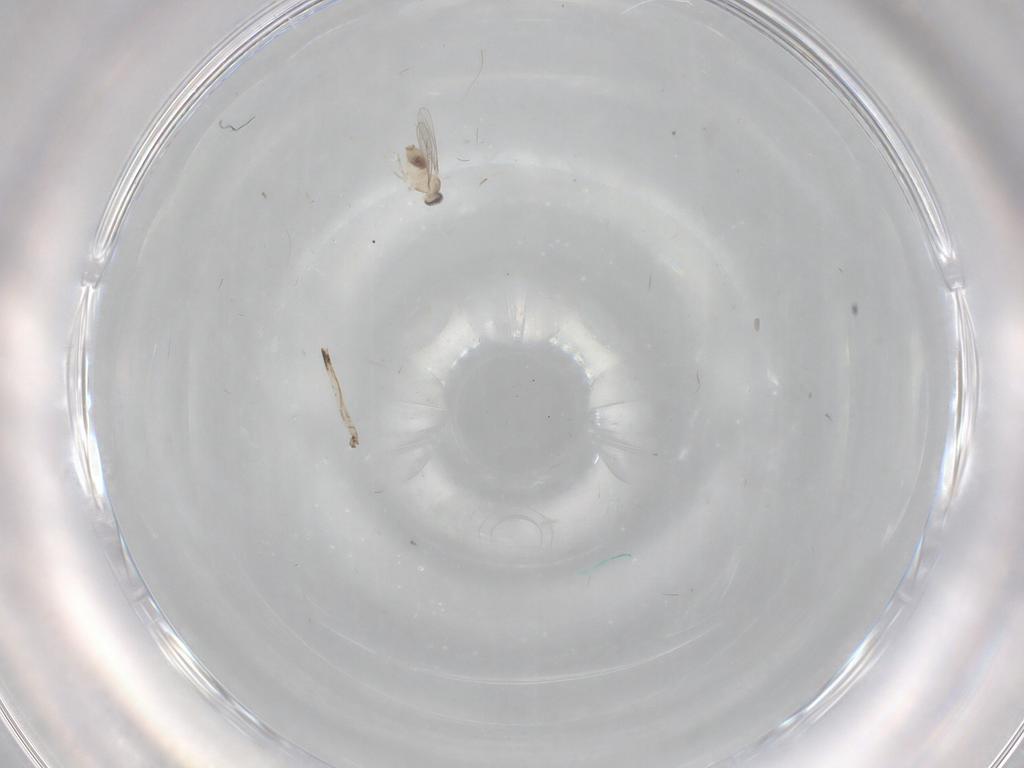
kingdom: Animalia
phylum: Arthropoda
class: Insecta
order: Diptera
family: Cecidomyiidae
